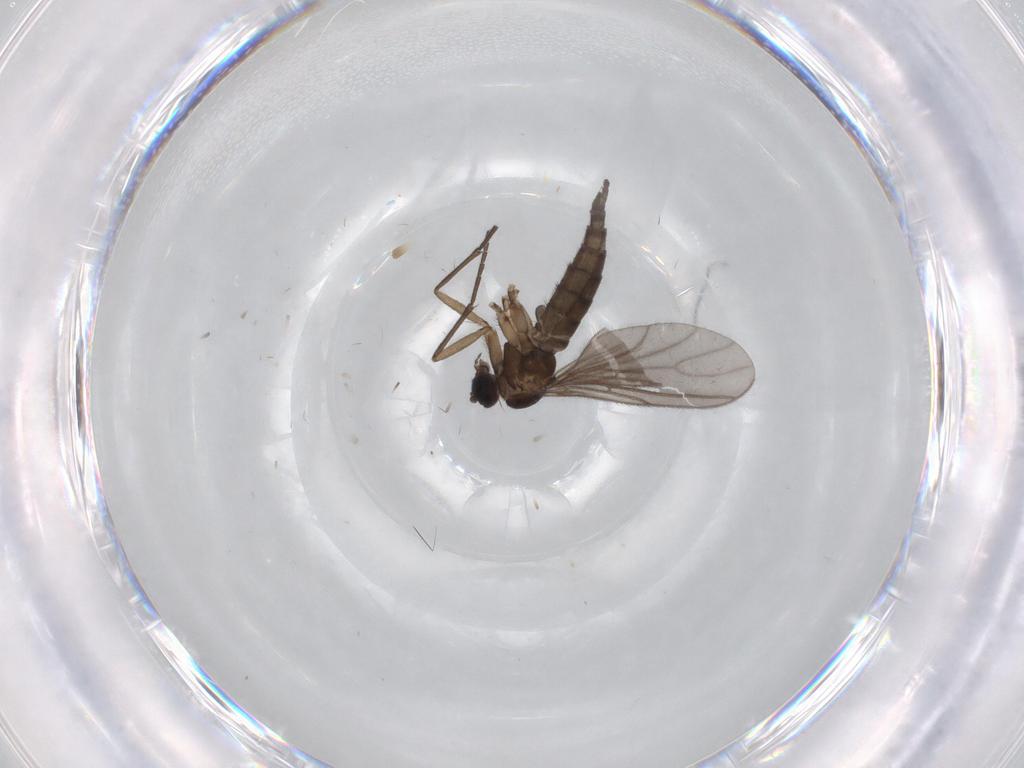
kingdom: Animalia
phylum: Arthropoda
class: Insecta
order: Diptera
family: Sciaridae
